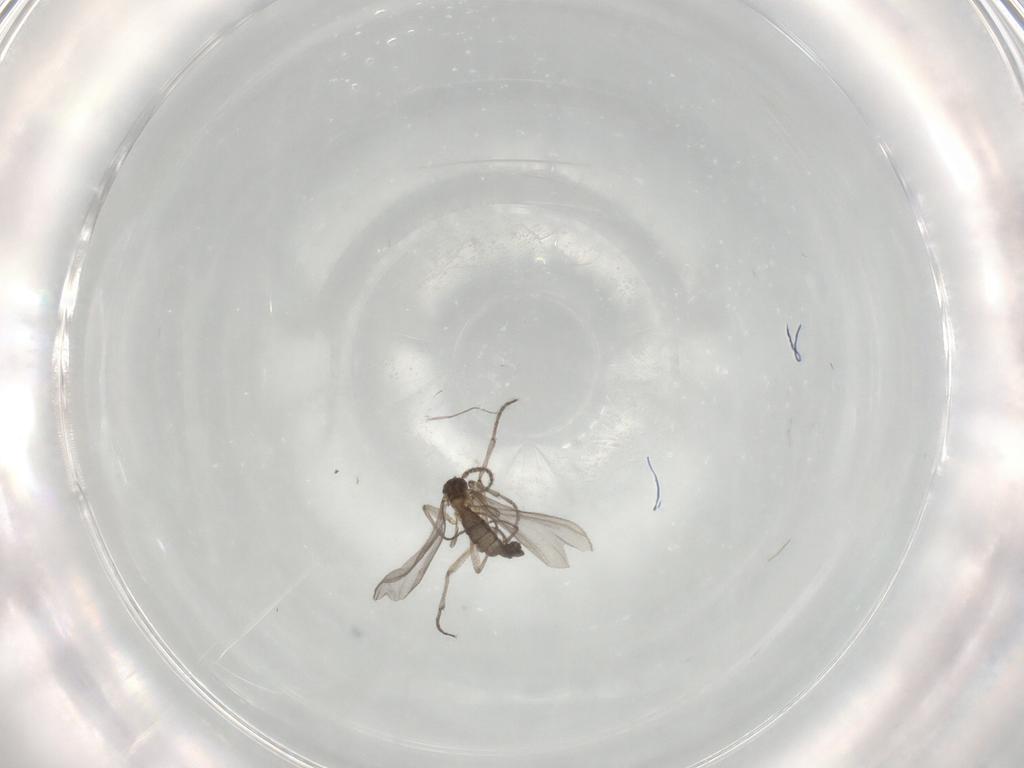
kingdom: Animalia
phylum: Arthropoda
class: Insecta
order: Diptera
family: Sciaridae
